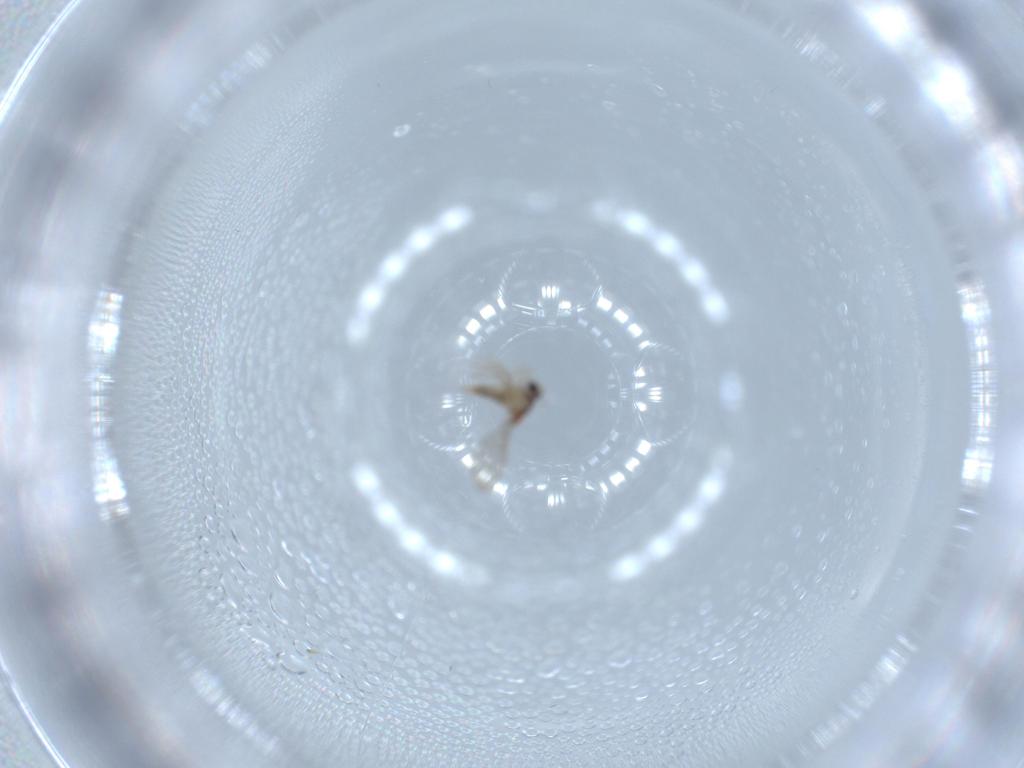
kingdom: Animalia
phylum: Arthropoda
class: Insecta
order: Diptera
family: Cecidomyiidae
